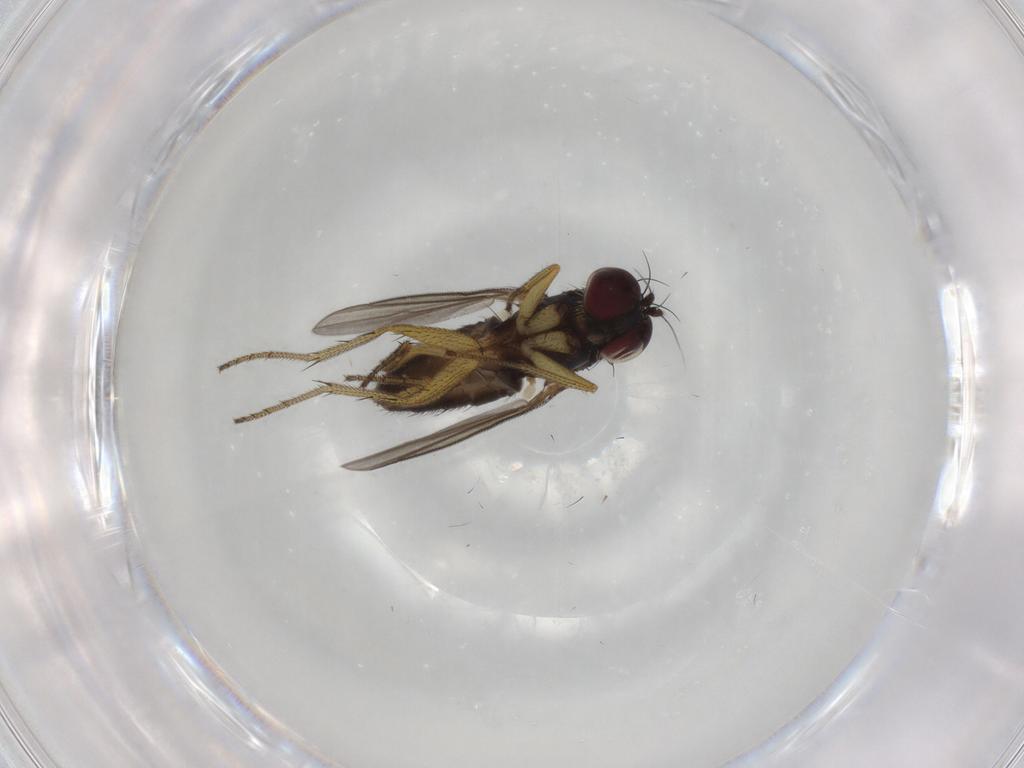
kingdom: Animalia
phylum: Arthropoda
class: Insecta
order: Diptera
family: Dolichopodidae
